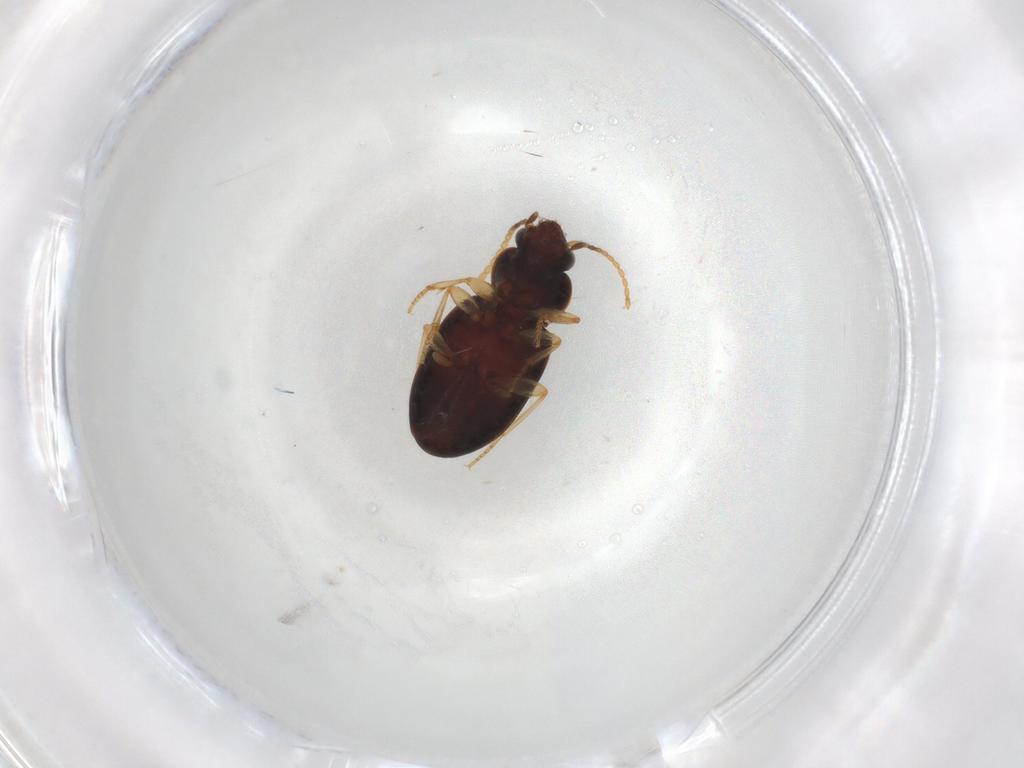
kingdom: Animalia
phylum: Arthropoda
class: Insecta
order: Coleoptera
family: Carabidae
